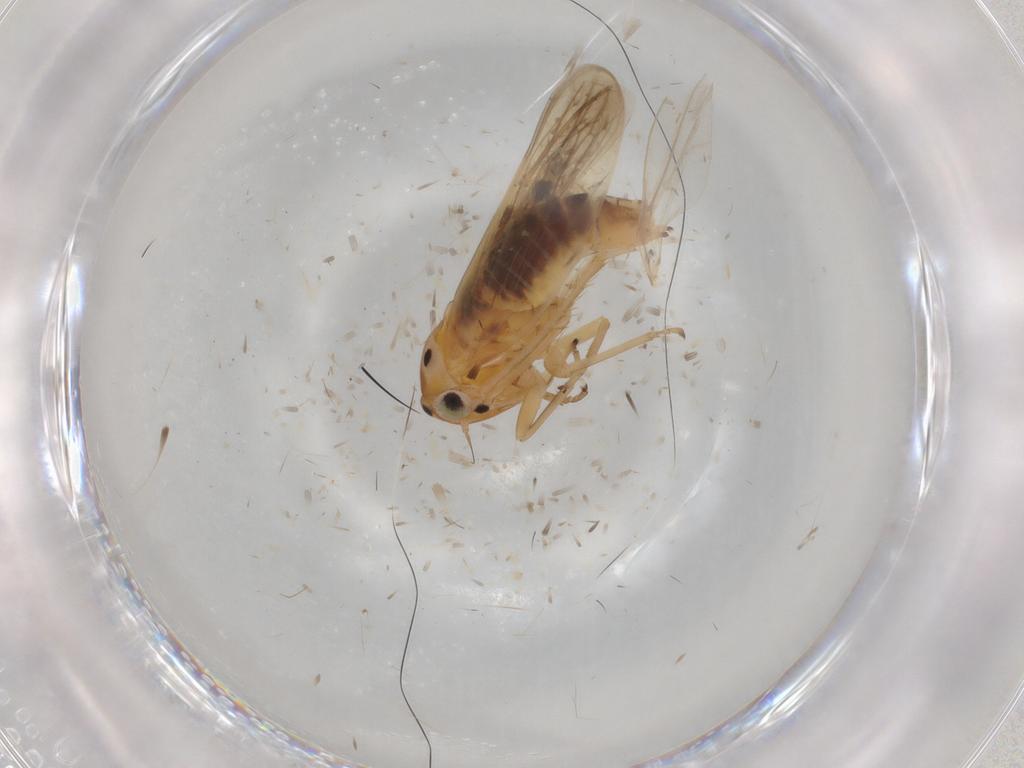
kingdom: Animalia
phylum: Arthropoda
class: Insecta
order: Hemiptera
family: Cicadellidae
